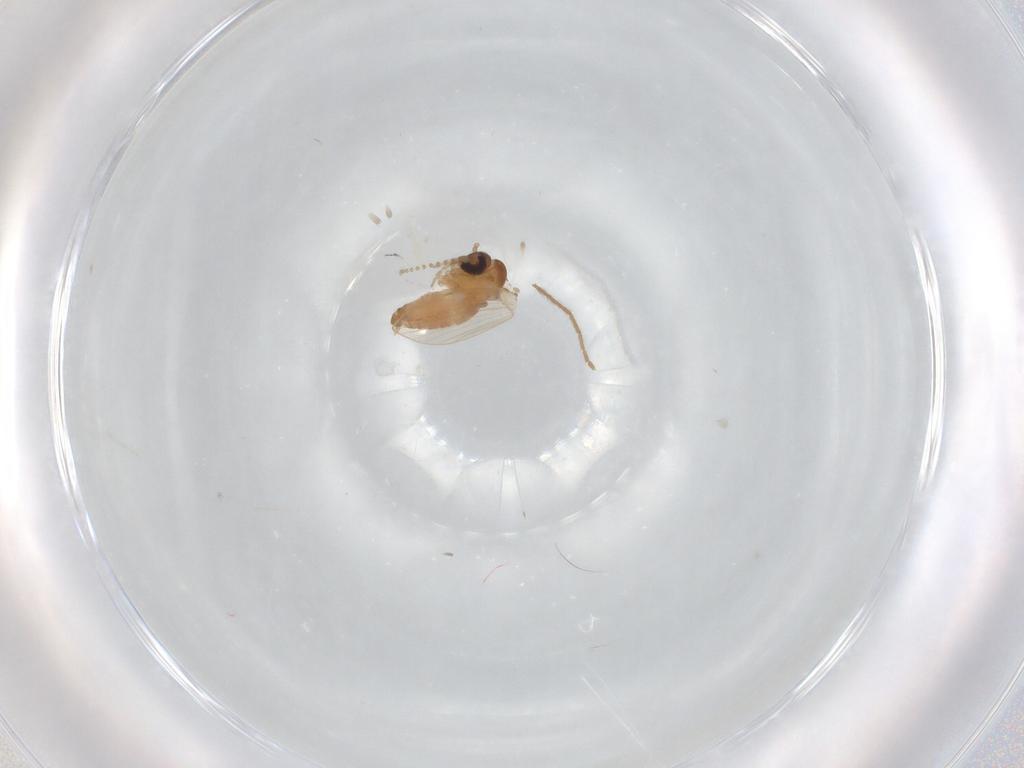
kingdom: Animalia
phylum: Arthropoda
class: Insecta
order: Diptera
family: Psychodidae
